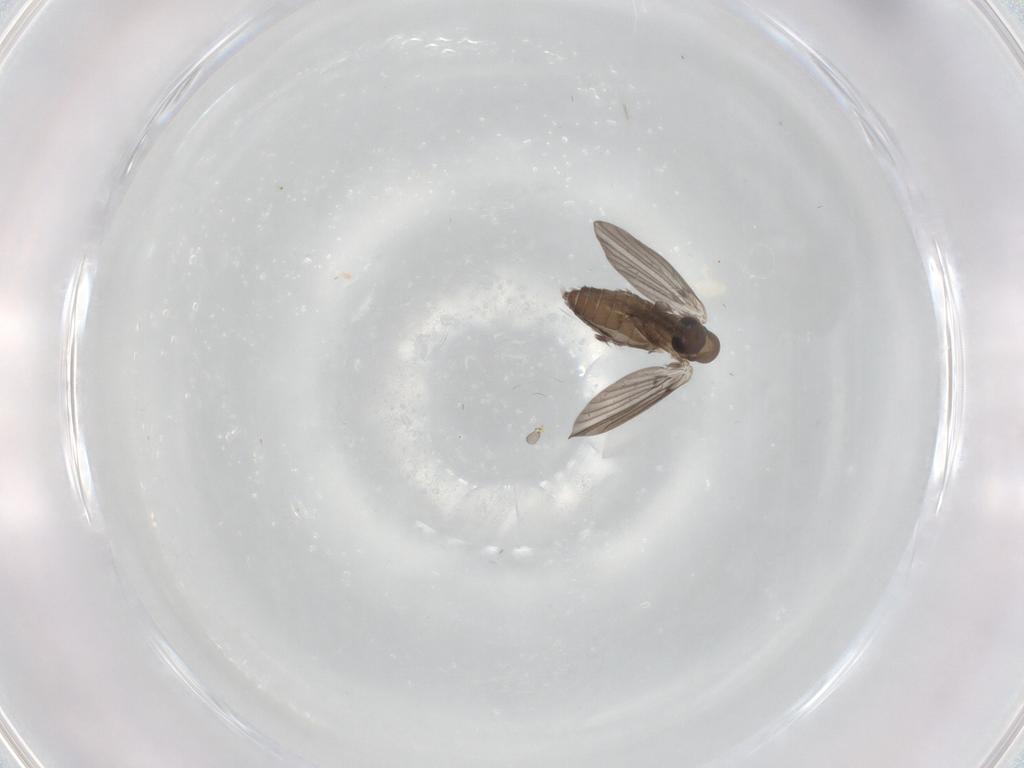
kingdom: Animalia
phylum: Arthropoda
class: Insecta
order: Diptera
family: Limoniidae
